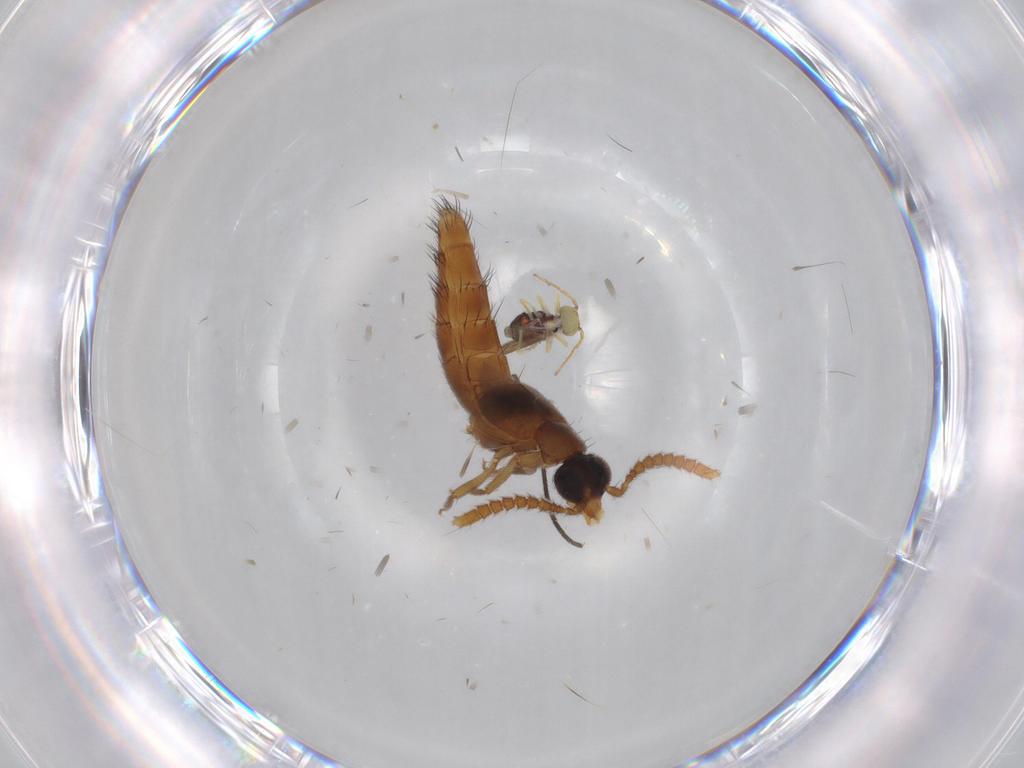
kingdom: Animalia
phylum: Arthropoda
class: Insecta
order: Coleoptera
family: Staphylinidae
